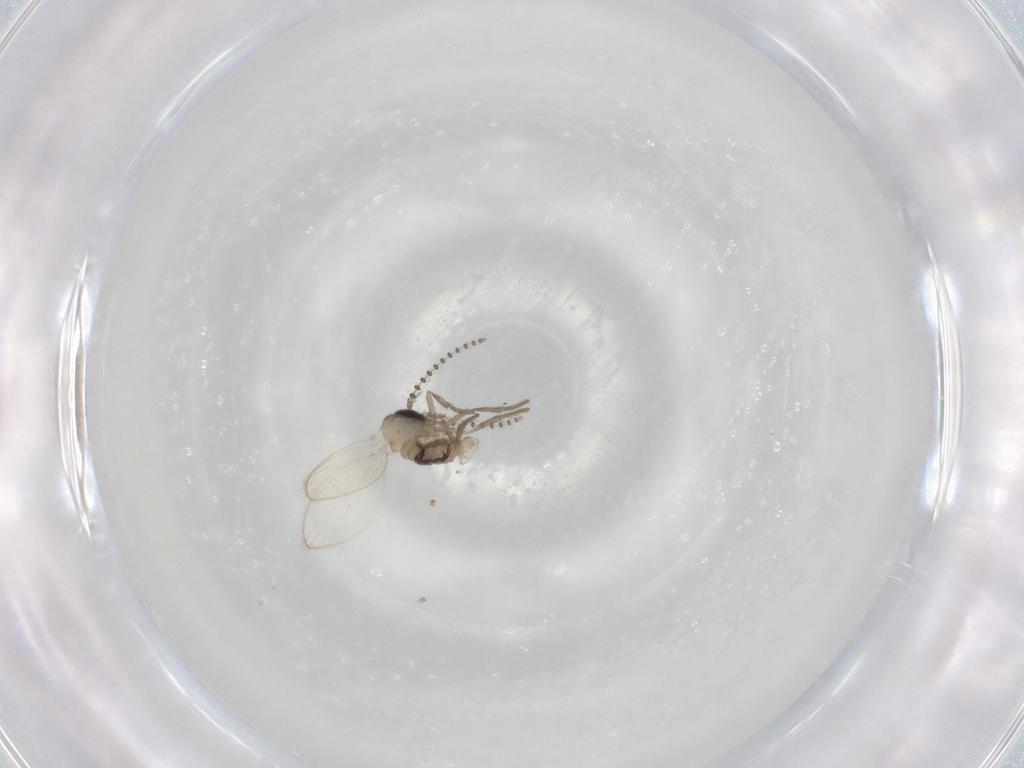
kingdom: Animalia
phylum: Arthropoda
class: Insecta
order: Diptera
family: Psychodidae
